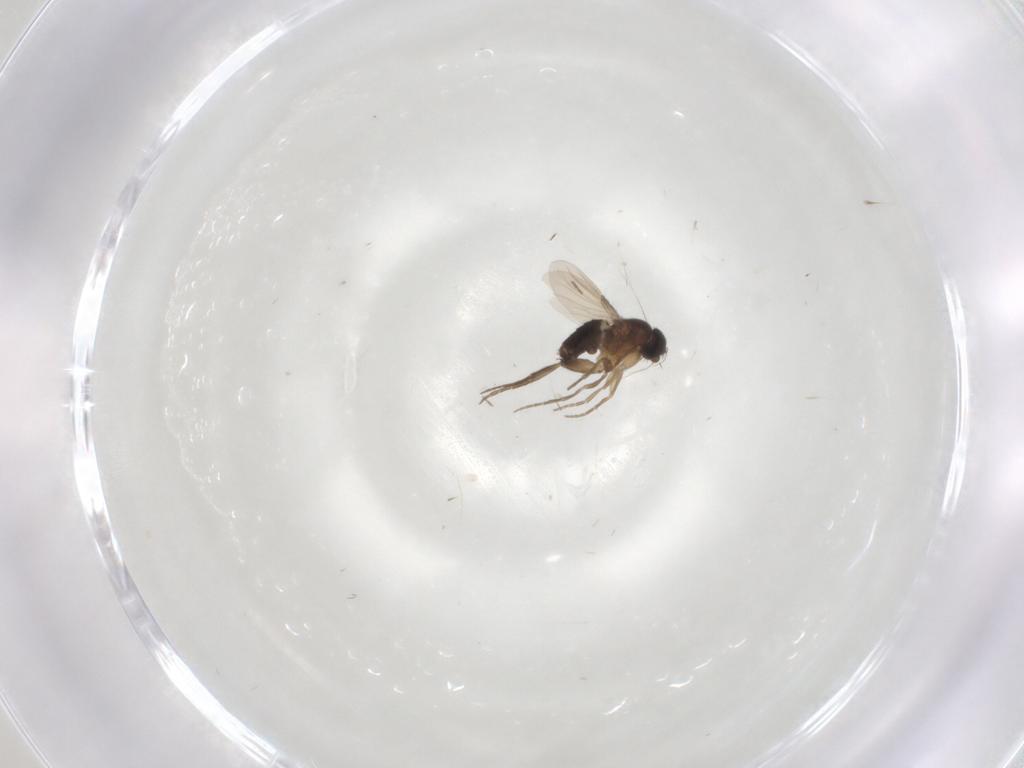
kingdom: Animalia
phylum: Arthropoda
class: Insecta
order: Diptera
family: Phoridae
